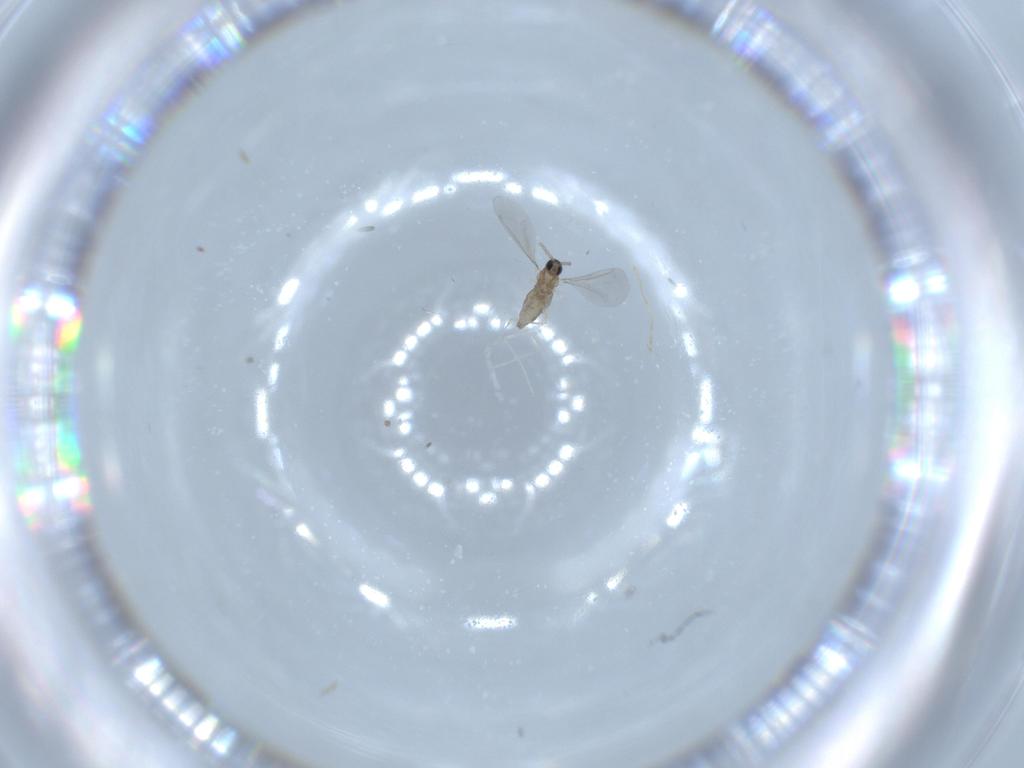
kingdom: Animalia
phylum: Arthropoda
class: Insecta
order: Diptera
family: Cecidomyiidae
